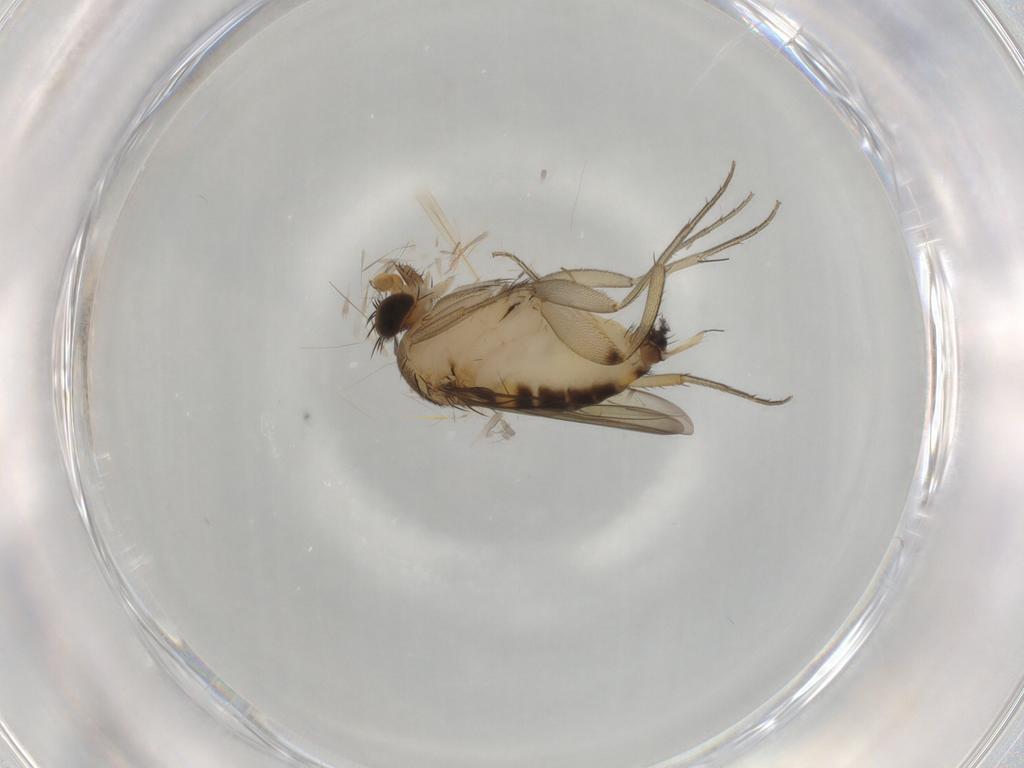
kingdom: Animalia
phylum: Arthropoda
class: Insecta
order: Diptera
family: Phoridae
